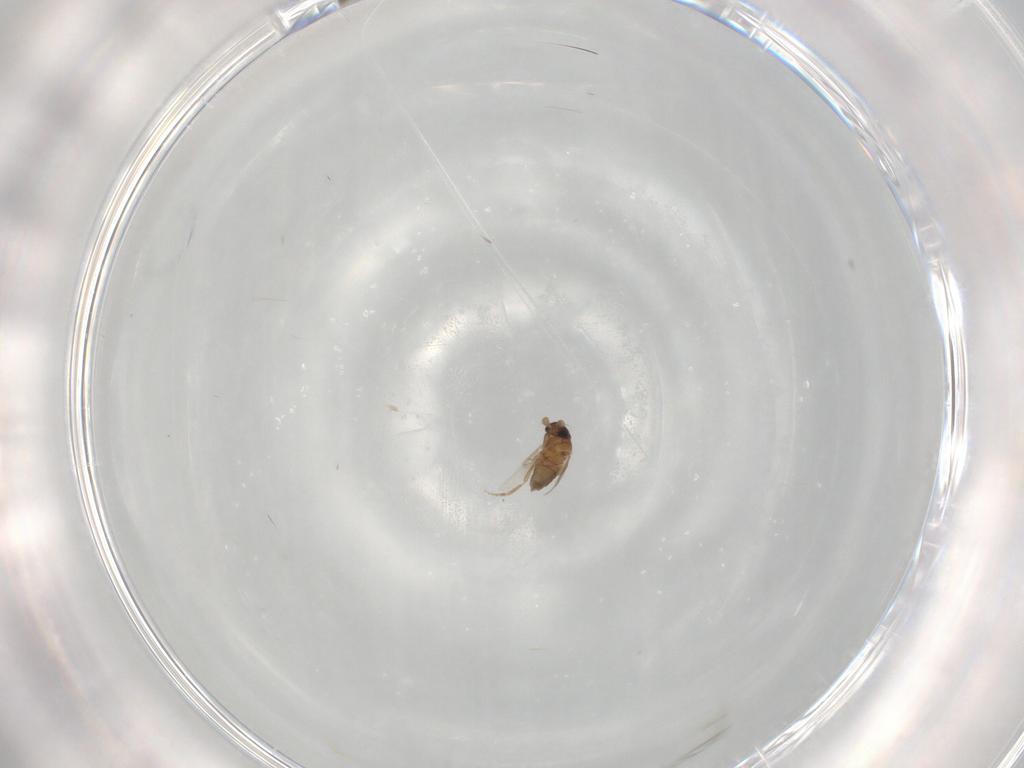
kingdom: Animalia
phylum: Arthropoda
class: Insecta
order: Diptera
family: Phoridae
